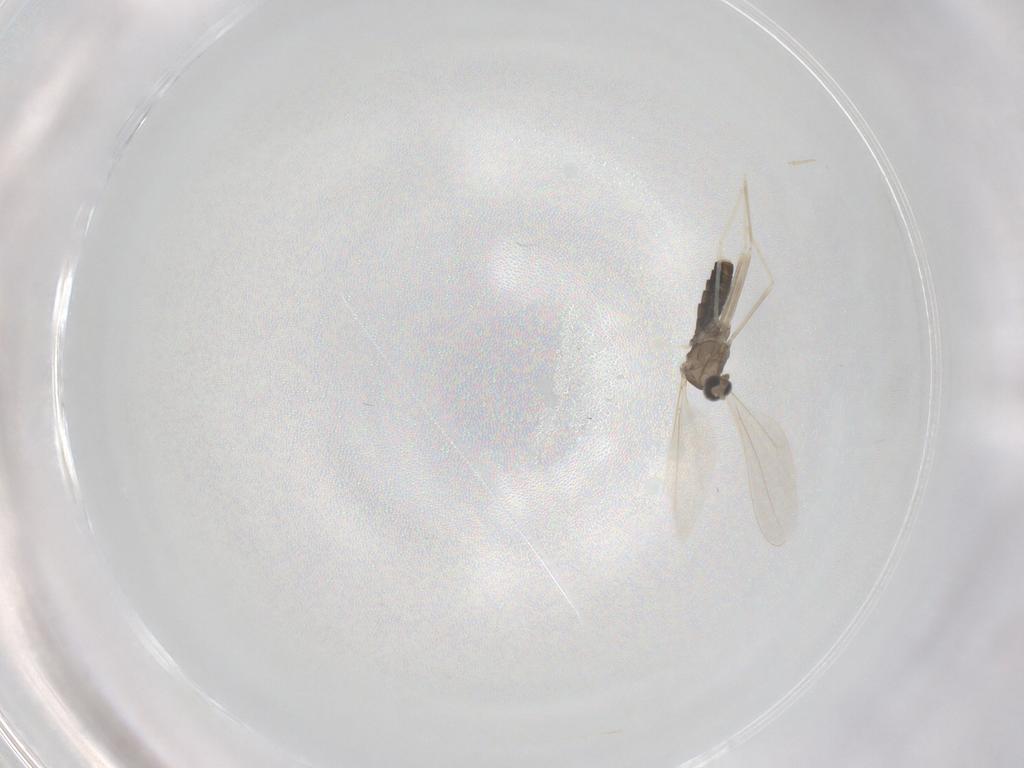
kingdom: Animalia
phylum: Arthropoda
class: Insecta
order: Diptera
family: Cecidomyiidae
